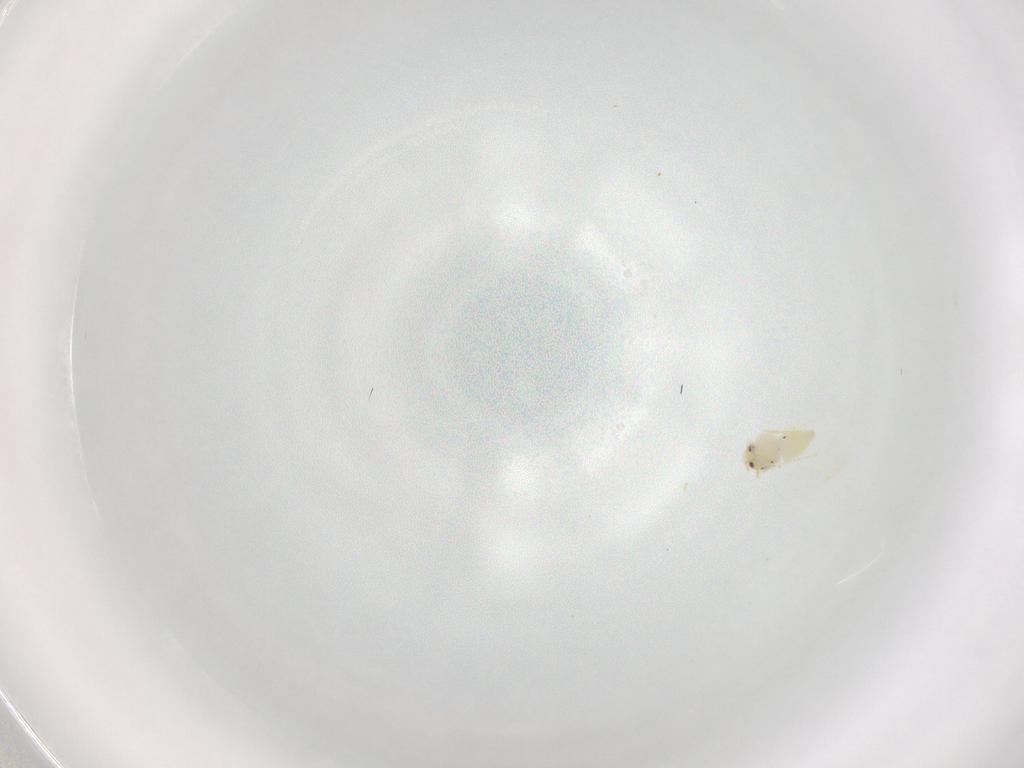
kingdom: Animalia
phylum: Arthropoda
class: Insecta
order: Hemiptera
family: Aleyrodidae
